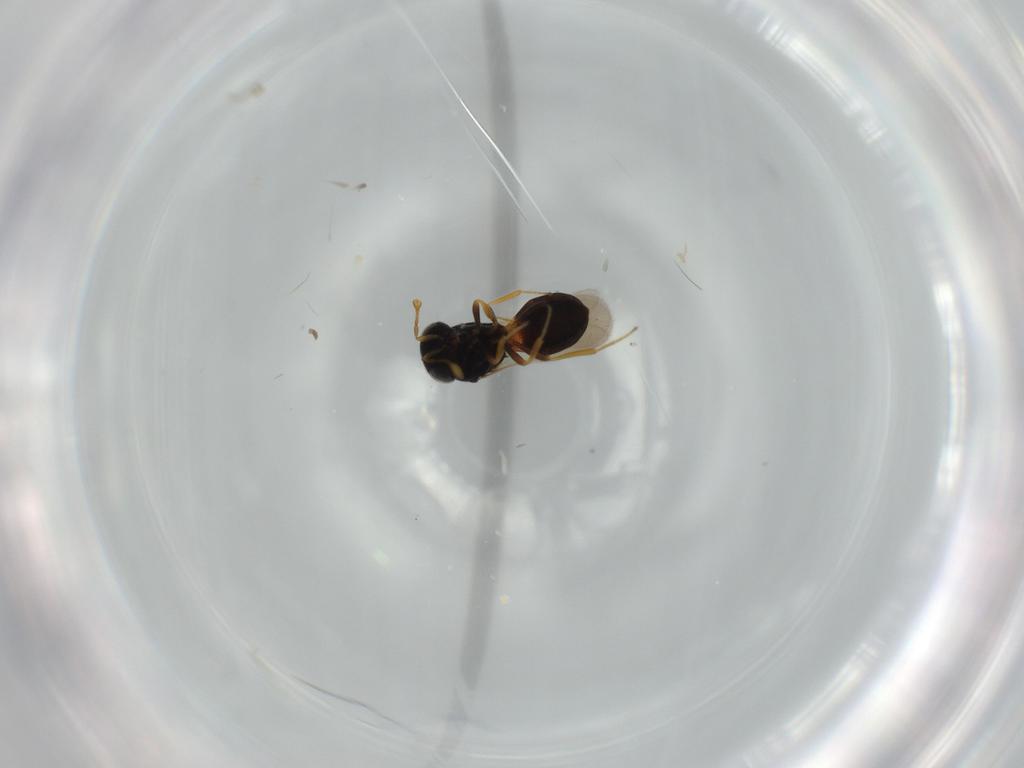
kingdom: Animalia
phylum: Arthropoda
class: Insecta
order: Hymenoptera
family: Scelionidae
